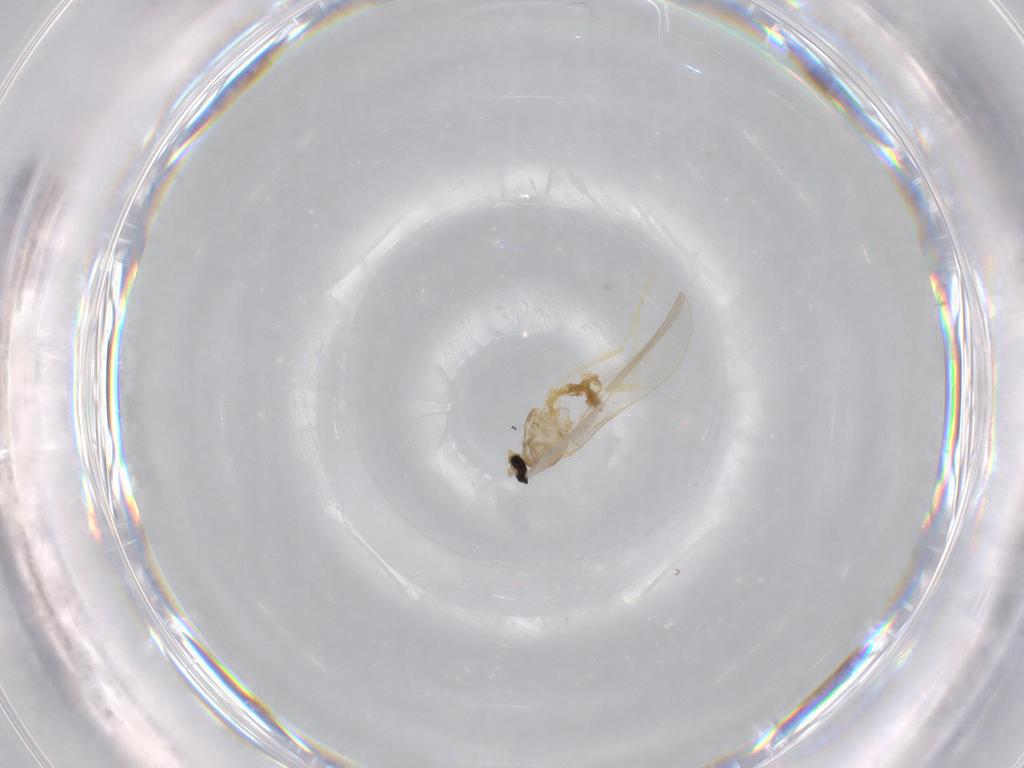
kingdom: Animalia
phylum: Arthropoda
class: Insecta
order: Diptera
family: Cecidomyiidae
